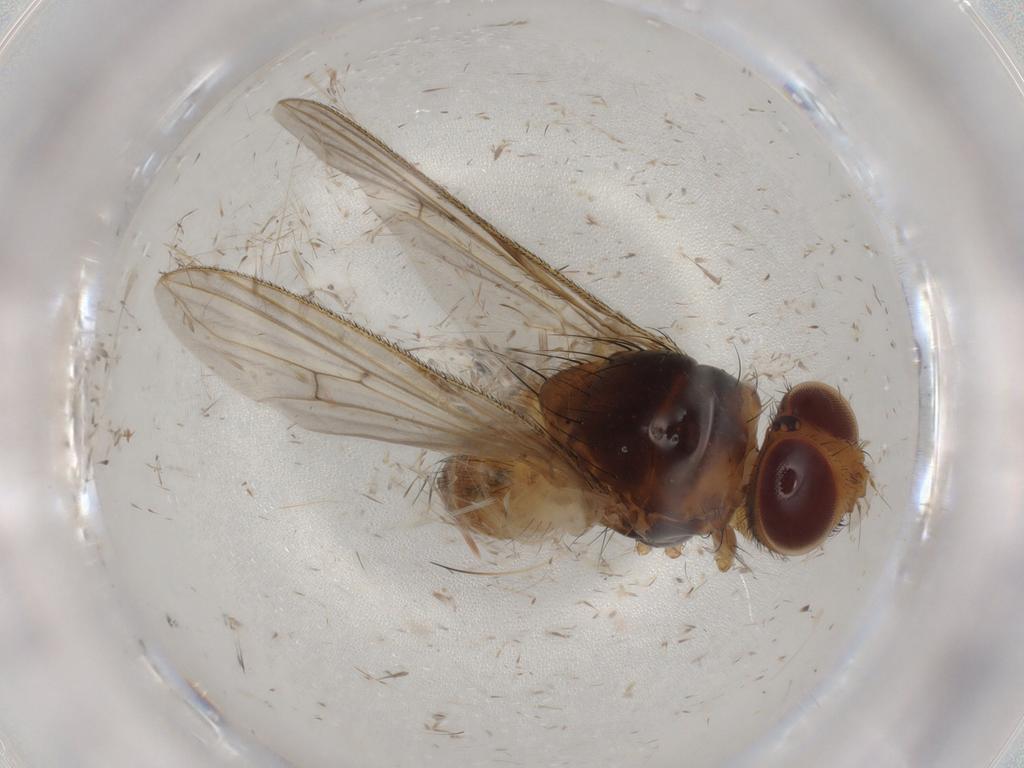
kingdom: Animalia
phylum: Arthropoda
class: Insecta
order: Diptera
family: Tachinidae
